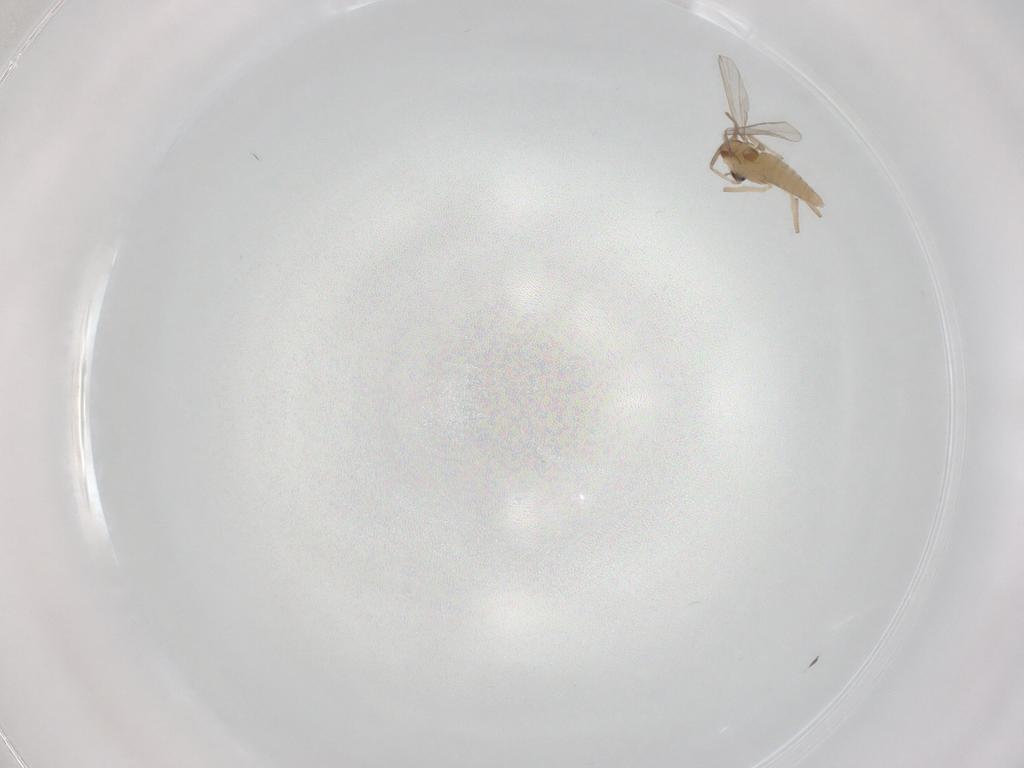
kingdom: Animalia
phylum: Arthropoda
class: Insecta
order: Diptera
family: Chironomidae
